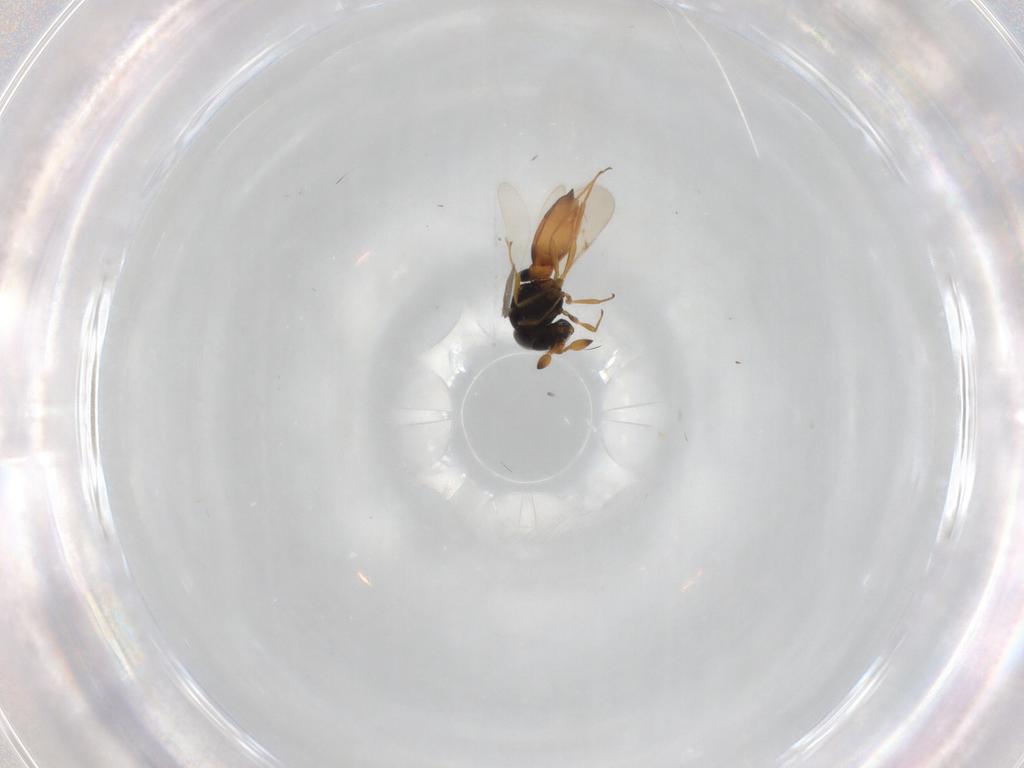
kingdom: Animalia
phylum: Arthropoda
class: Insecta
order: Hymenoptera
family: Scelionidae
